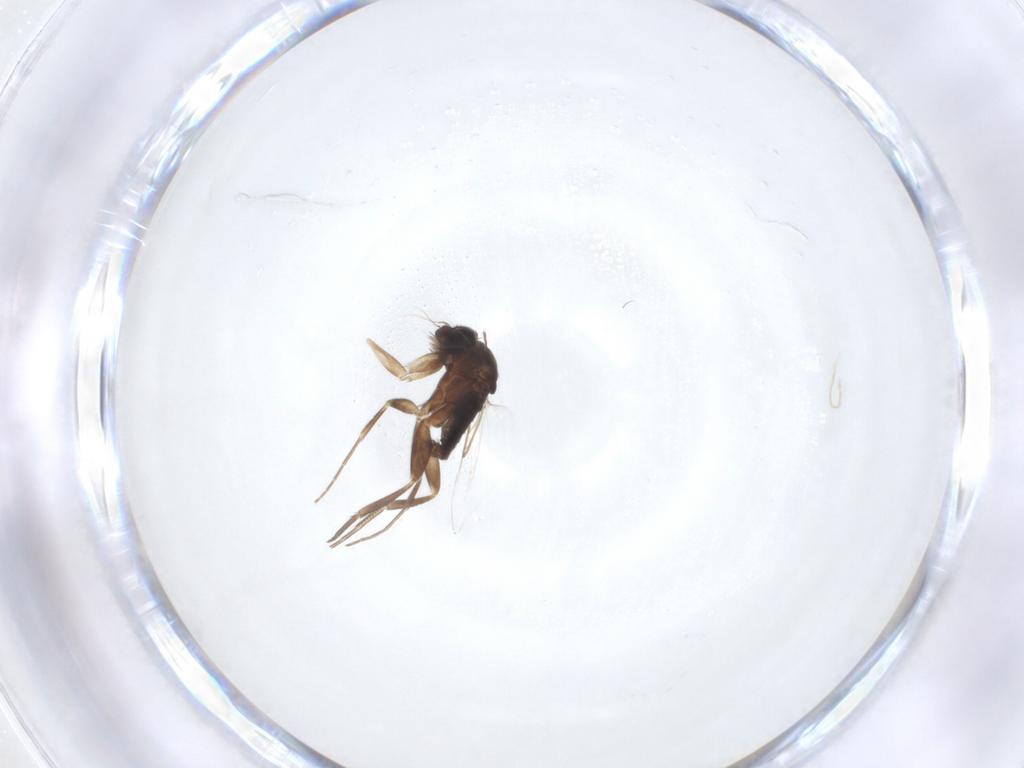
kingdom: Animalia
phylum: Arthropoda
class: Insecta
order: Diptera
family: Phoridae
